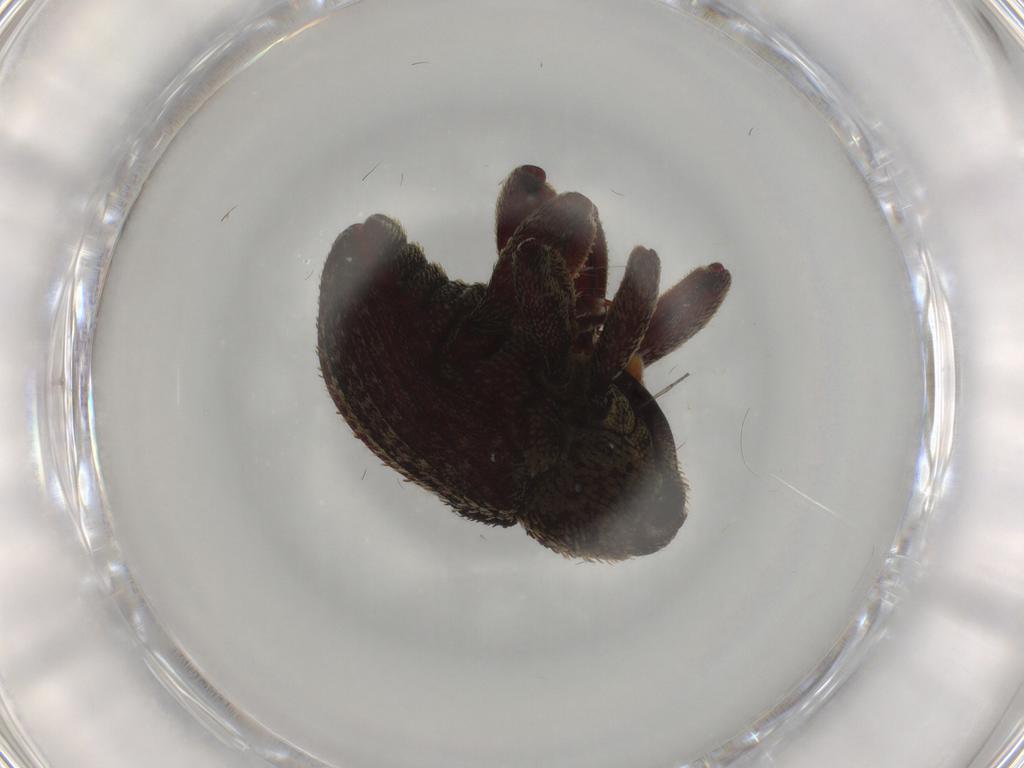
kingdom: Animalia
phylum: Arthropoda
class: Insecta
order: Coleoptera
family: Curculionidae
